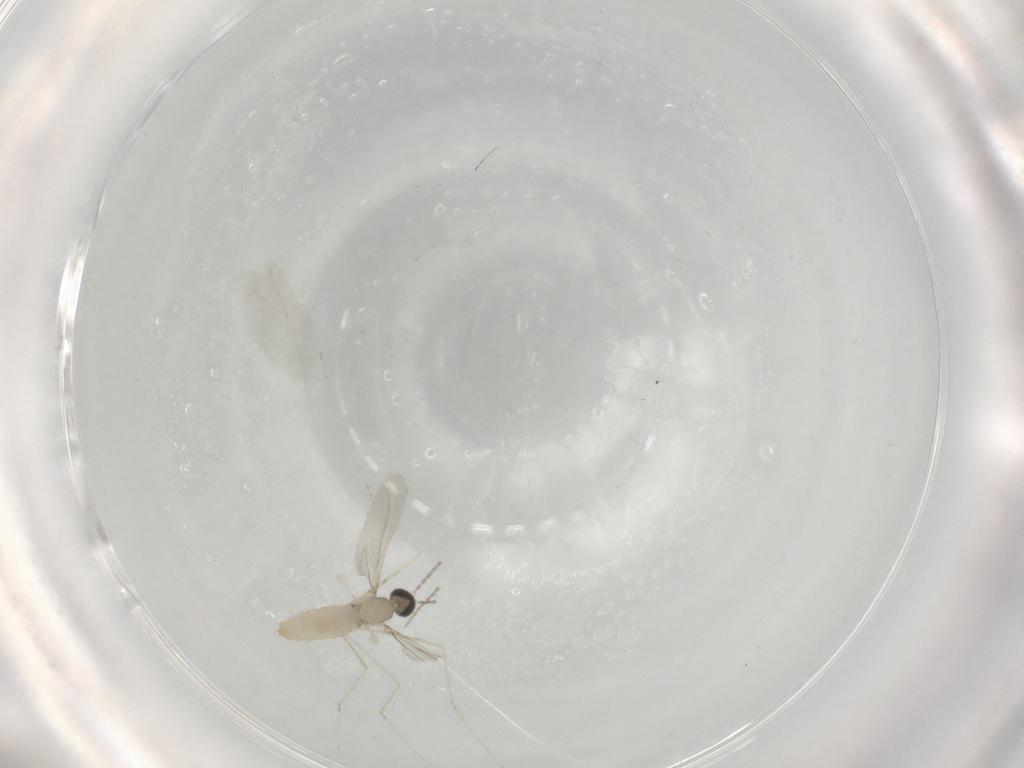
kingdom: Animalia
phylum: Arthropoda
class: Insecta
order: Diptera
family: Cecidomyiidae
